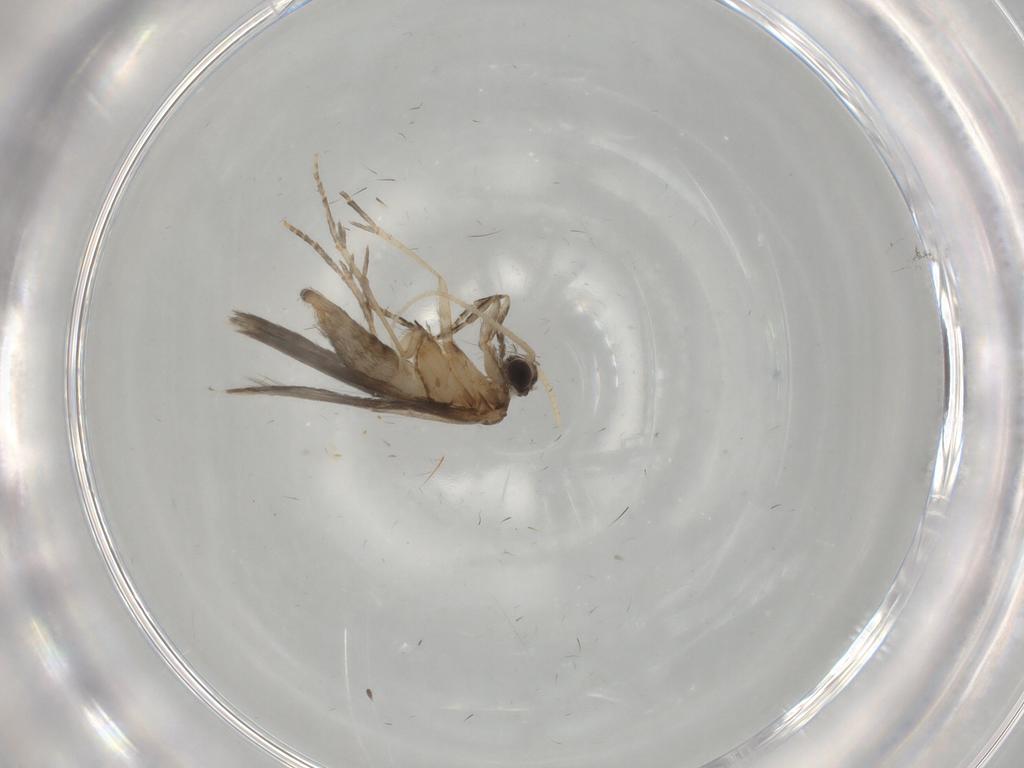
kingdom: Animalia
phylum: Arthropoda
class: Insecta
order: Trichoptera
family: Hydroptilidae
